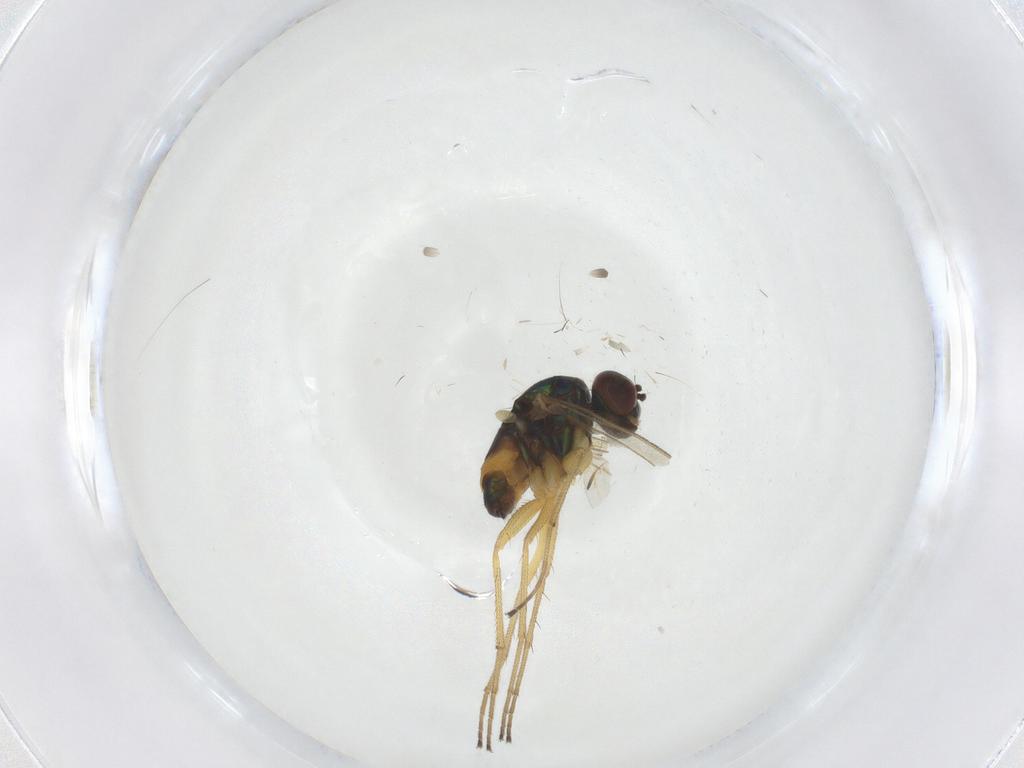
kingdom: Animalia
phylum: Arthropoda
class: Insecta
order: Diptera
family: Dolichopodidae
